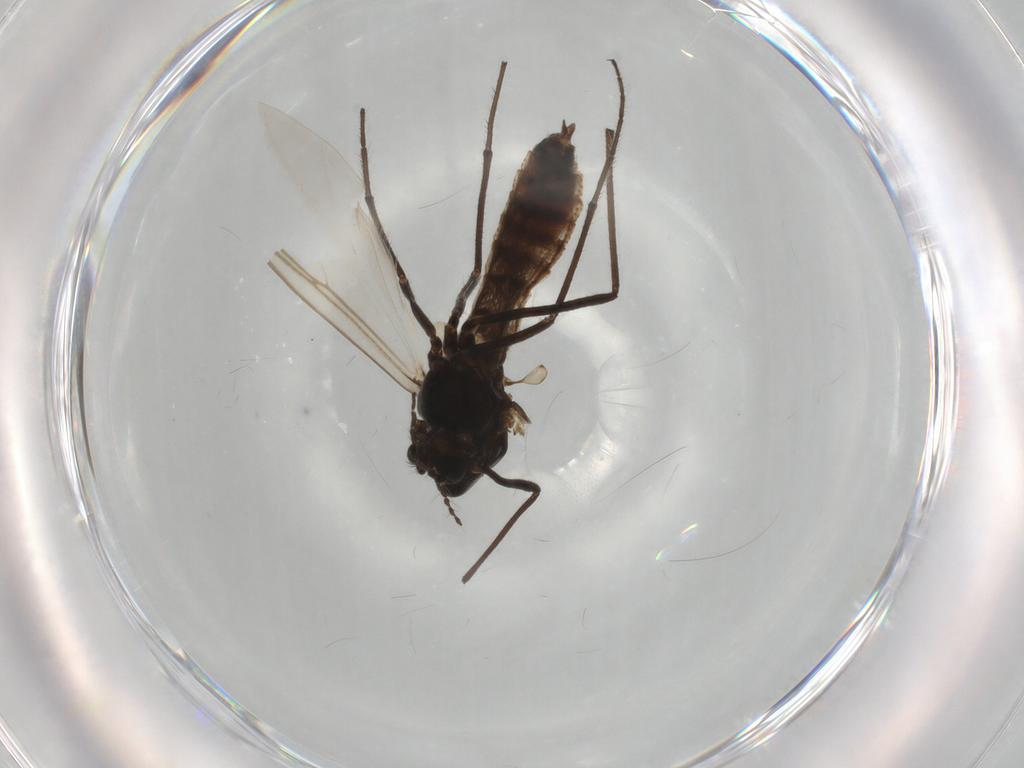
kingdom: Animalia
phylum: Arthropoda
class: Insecta
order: Diptera
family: Chironomidae
